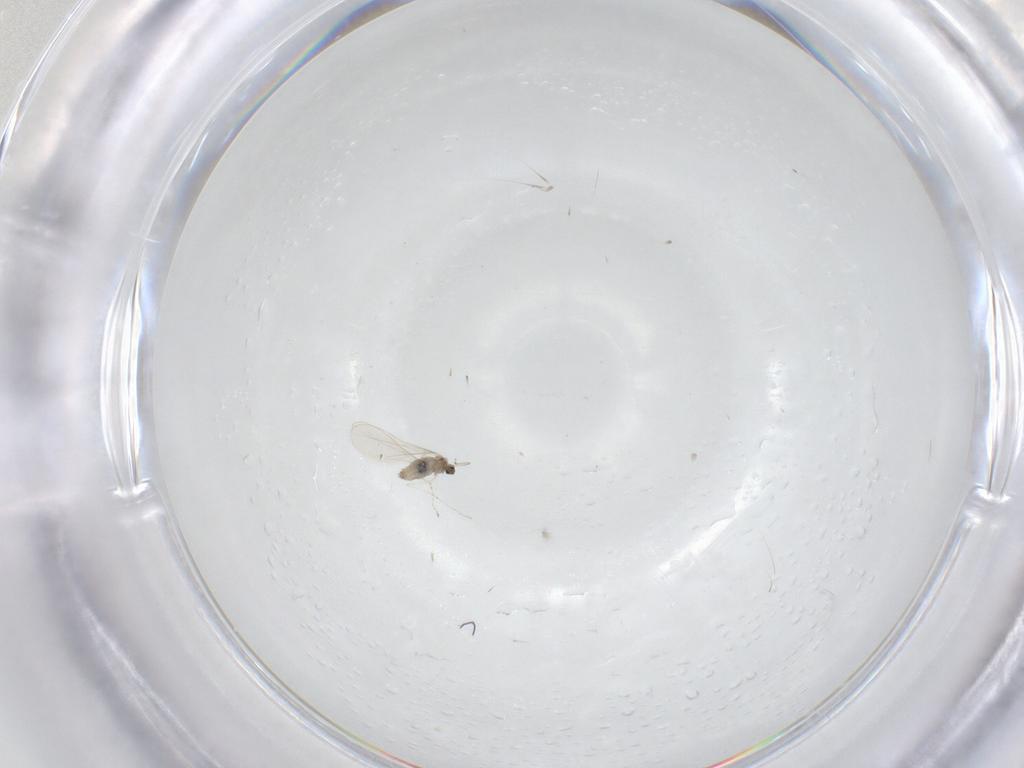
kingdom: Animalia
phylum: Arthropoda
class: Insecta
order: Diptera
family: Cecidomyiidae
